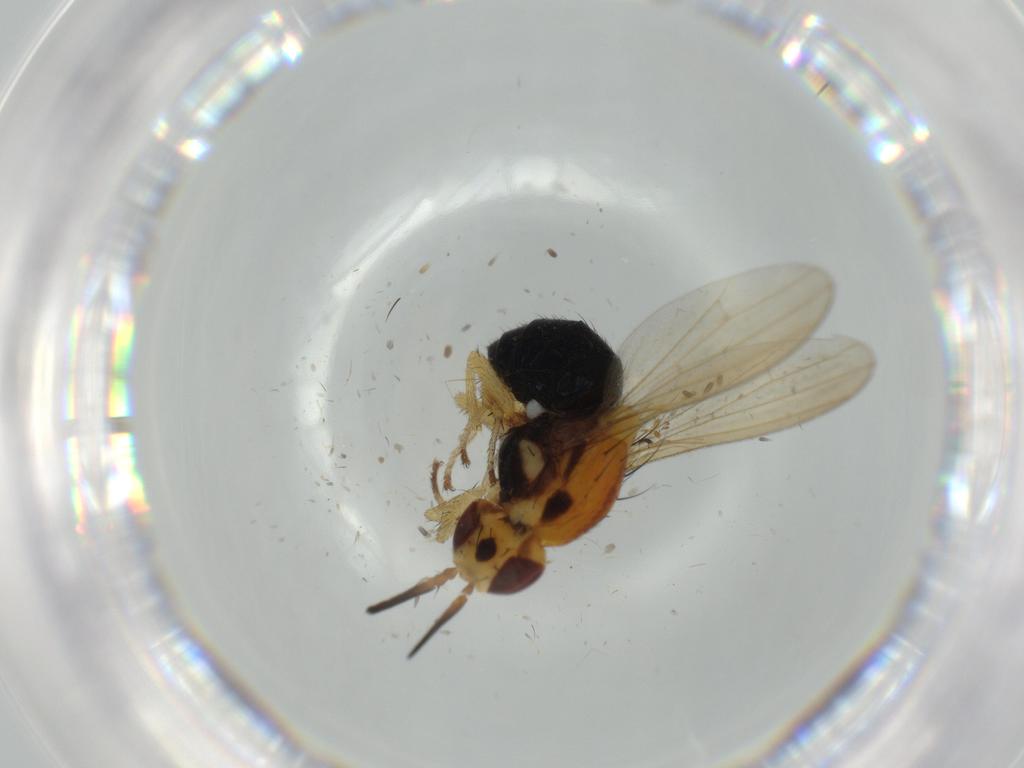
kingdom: Animalia
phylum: Arthropoda
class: Insecta
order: Diptera
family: Lauxaniidae
